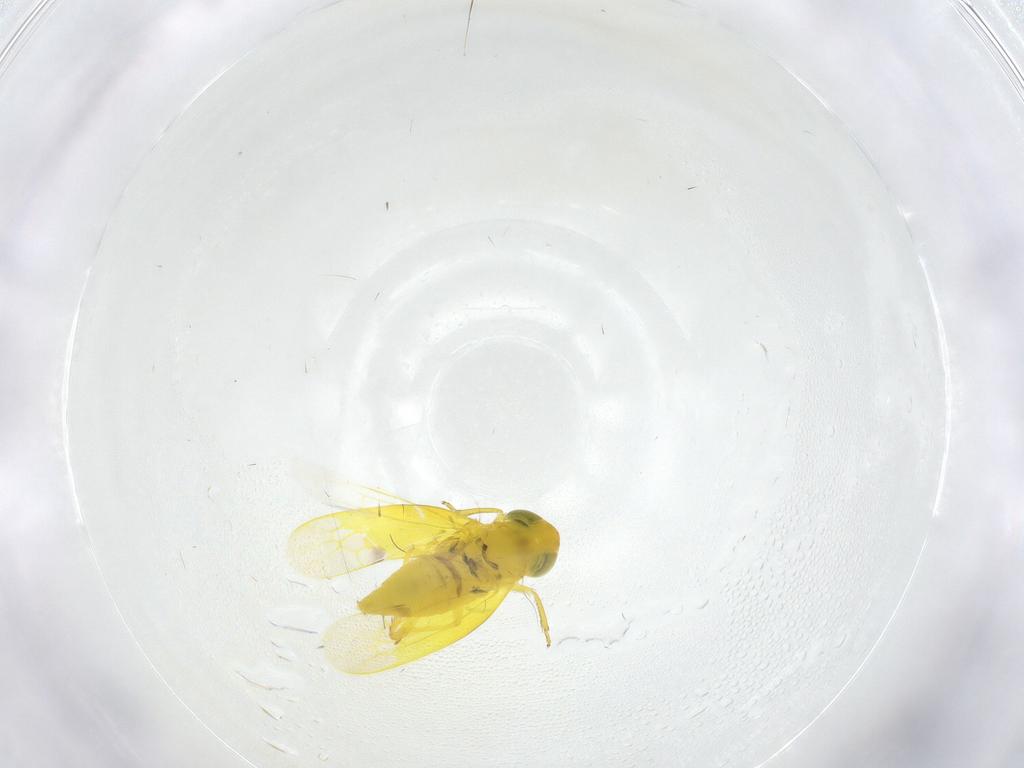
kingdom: Animalia
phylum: Arthropoda
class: Insecta
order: Hemiptera
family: Cicadellidae
